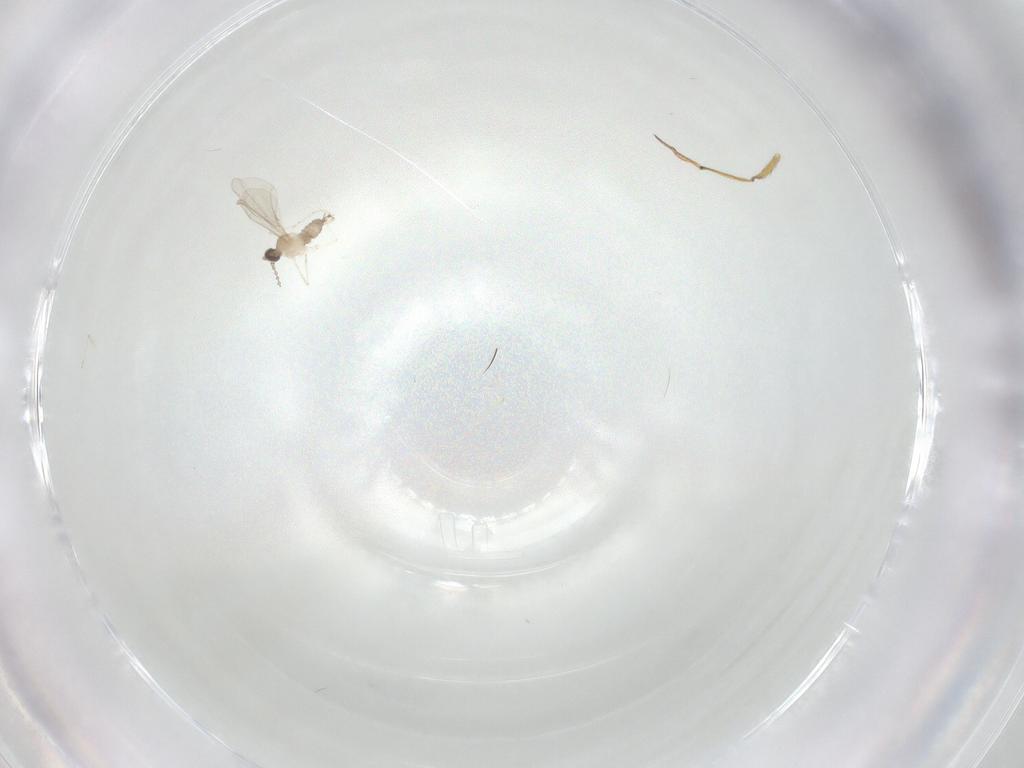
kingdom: Animalia
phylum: Arthropoda
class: Insecta
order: Diptera
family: Cecidomyiidae
